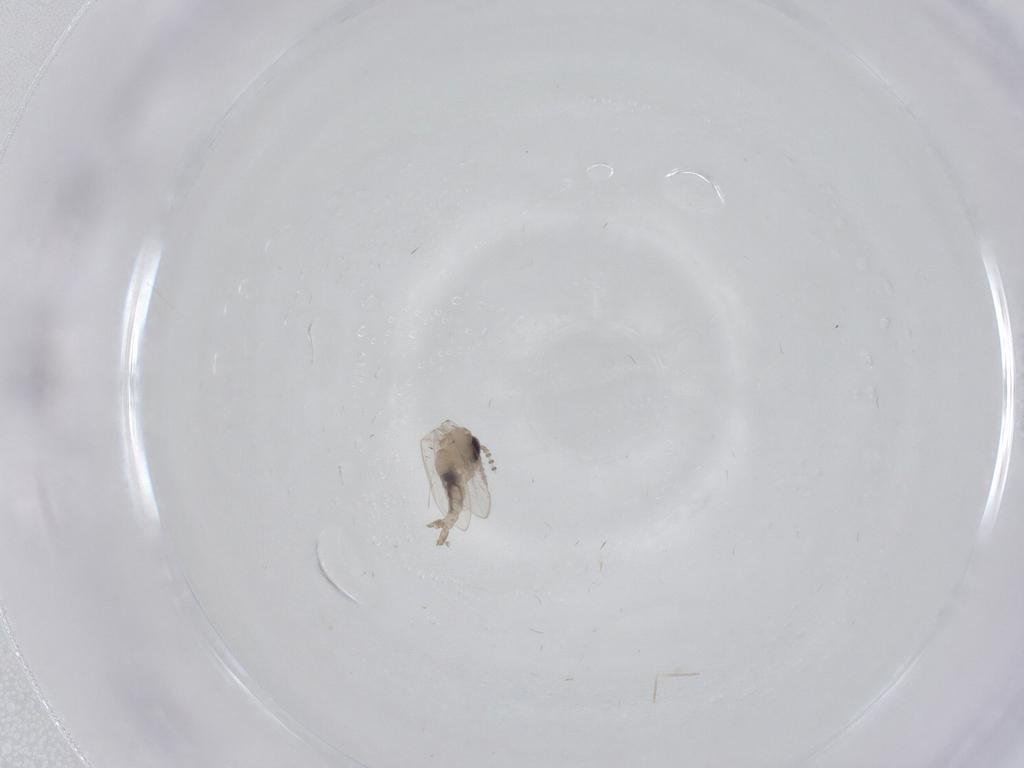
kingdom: Animalia
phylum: Arthropoda
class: Insecta
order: Diptera
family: Psychodidae
